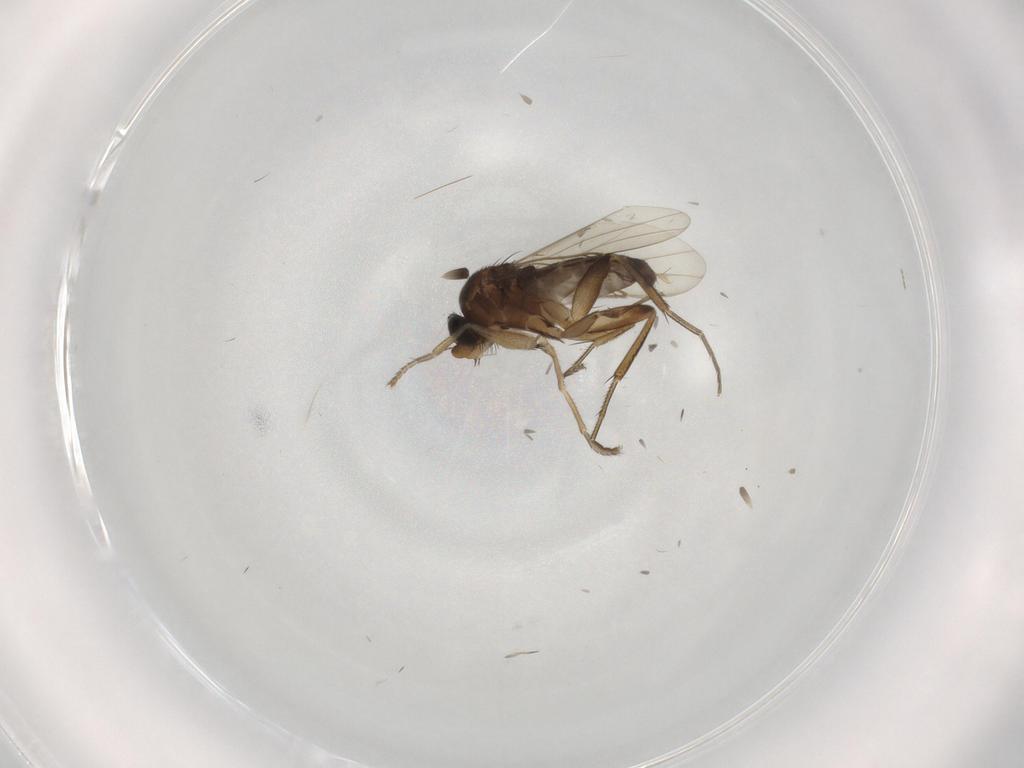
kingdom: Animalia
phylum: Arthropoda
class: Insecta
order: Diptera
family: Phoridae
